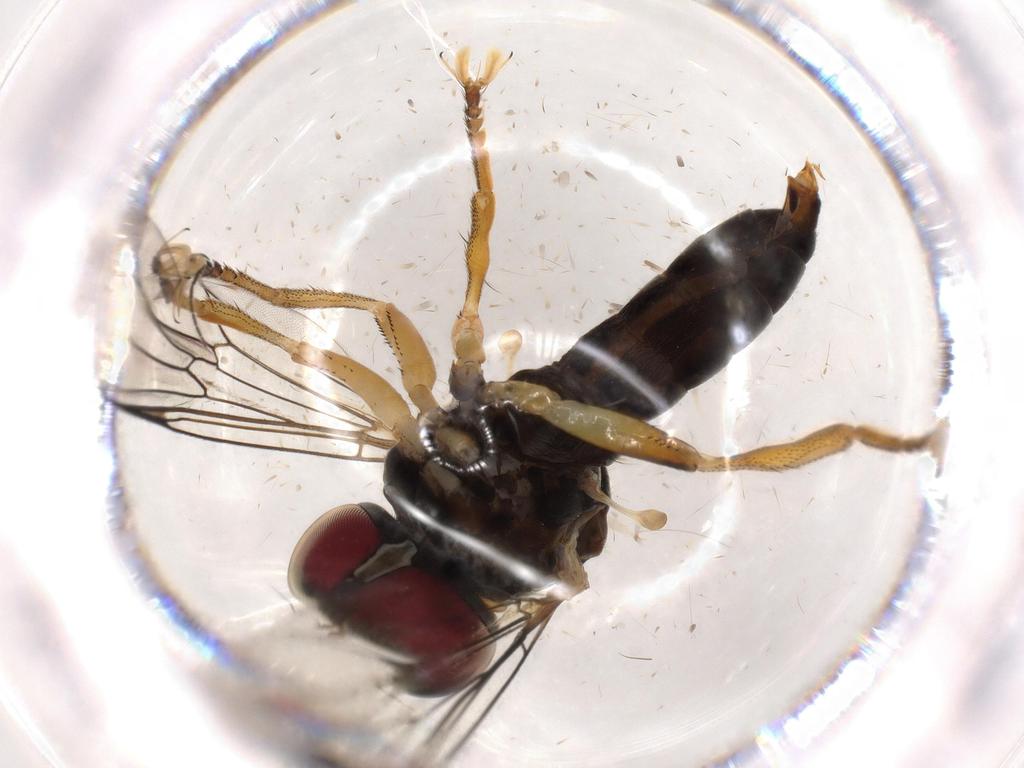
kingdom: Animalia
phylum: Arthropoda
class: Insecta
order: Diptera
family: Pipunculidae
